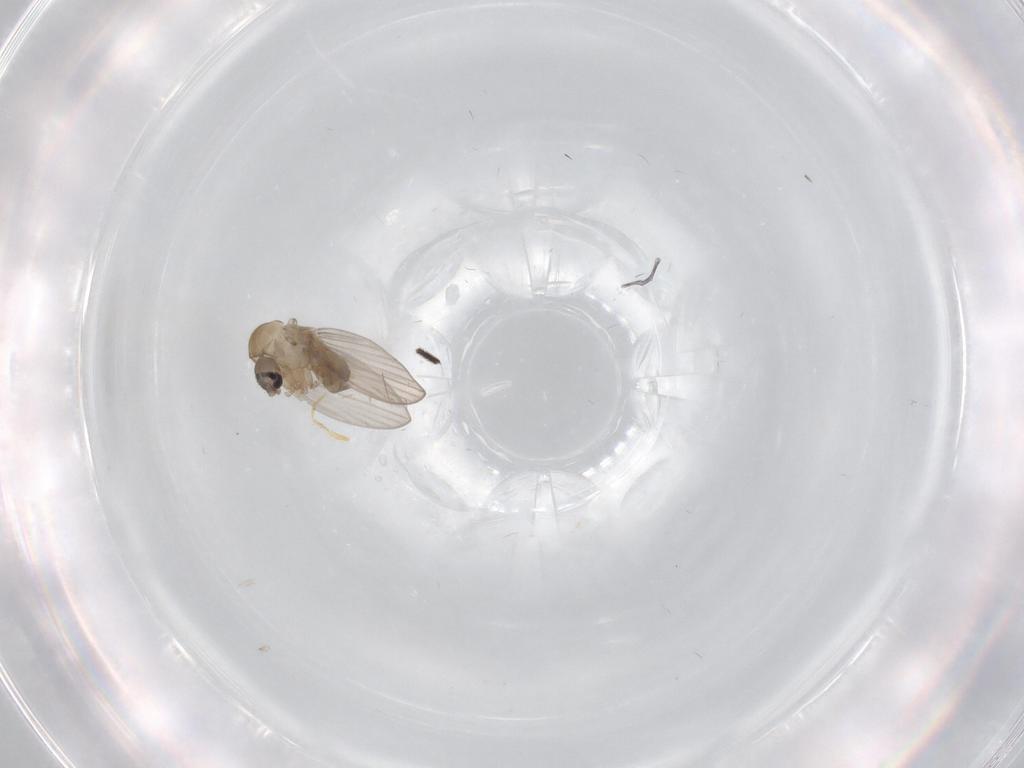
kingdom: Animalia
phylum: Arthropoda
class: Insecta
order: Diptera
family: Psychodidae
